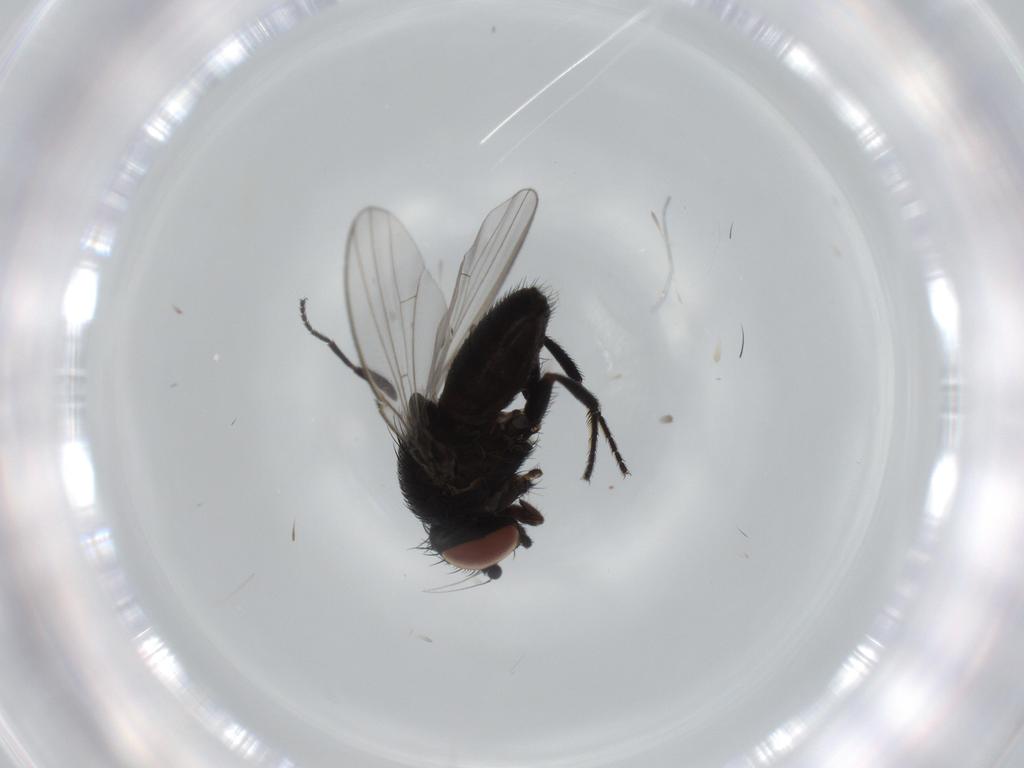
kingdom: Animalia
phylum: Arthropoda
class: Insecta
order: Diptera
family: Milichiidae
